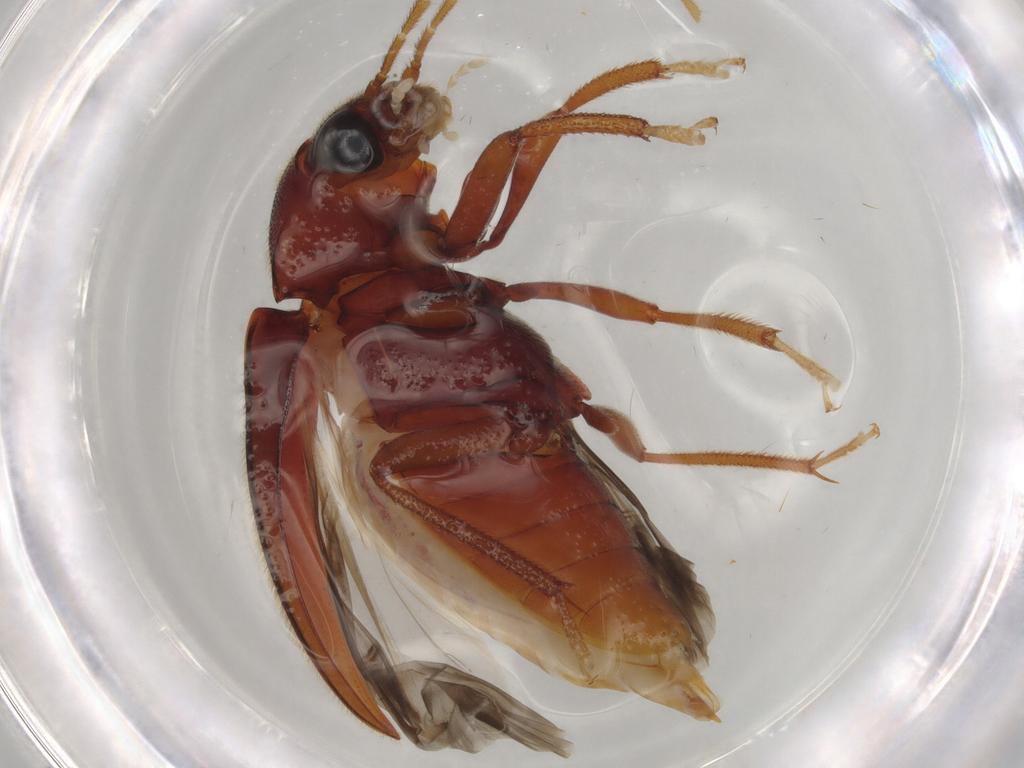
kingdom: Animalia
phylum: Arthropoda
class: Insecta
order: Coleoptera
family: Ptilodactylidae
